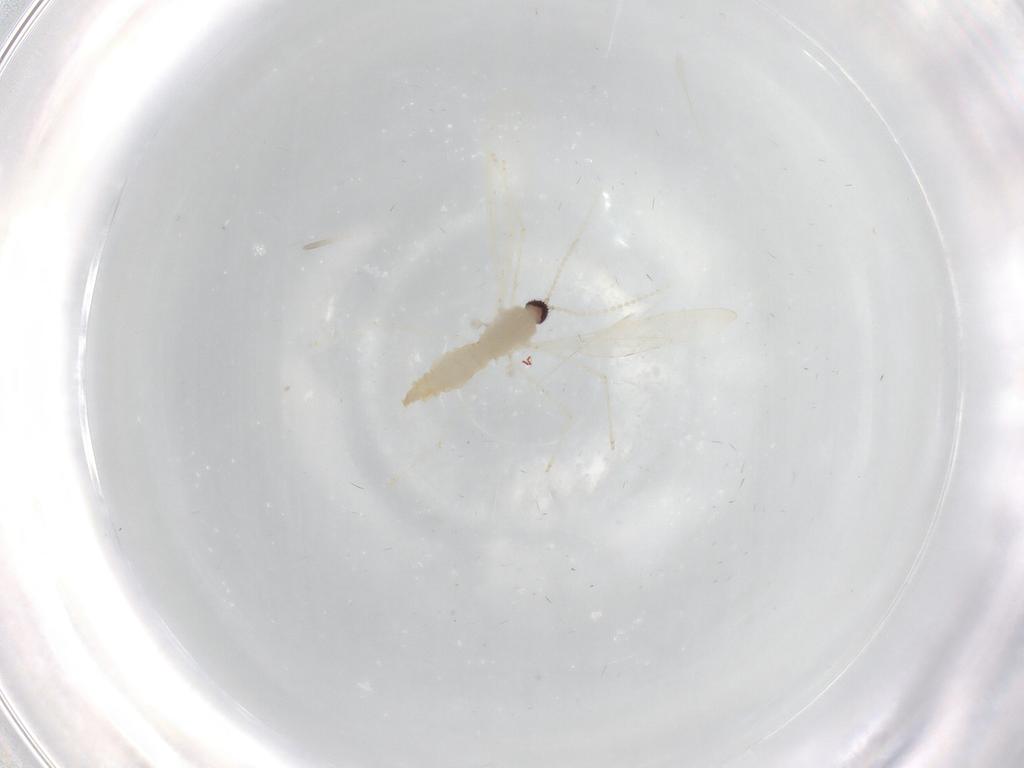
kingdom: Animalia
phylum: Arthropoda
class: Insecta
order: Diptera
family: Cecidomyiidae
